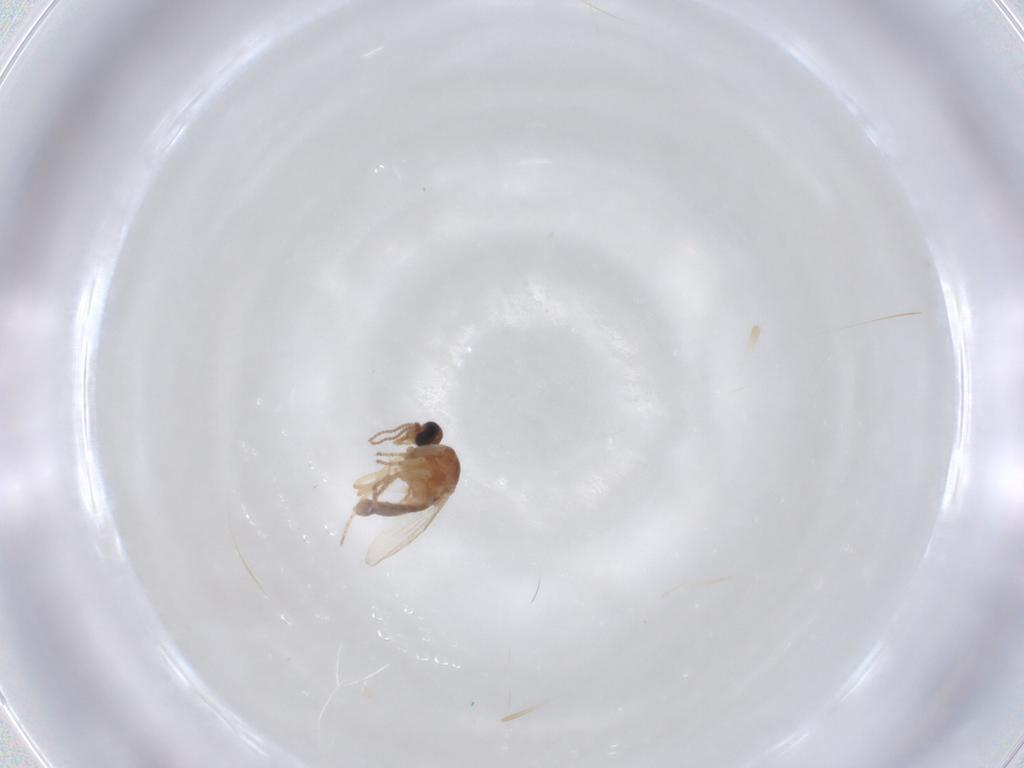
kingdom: Animalia
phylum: Arthropoda
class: Insecta
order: Diptera
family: Ceratopogonidae
